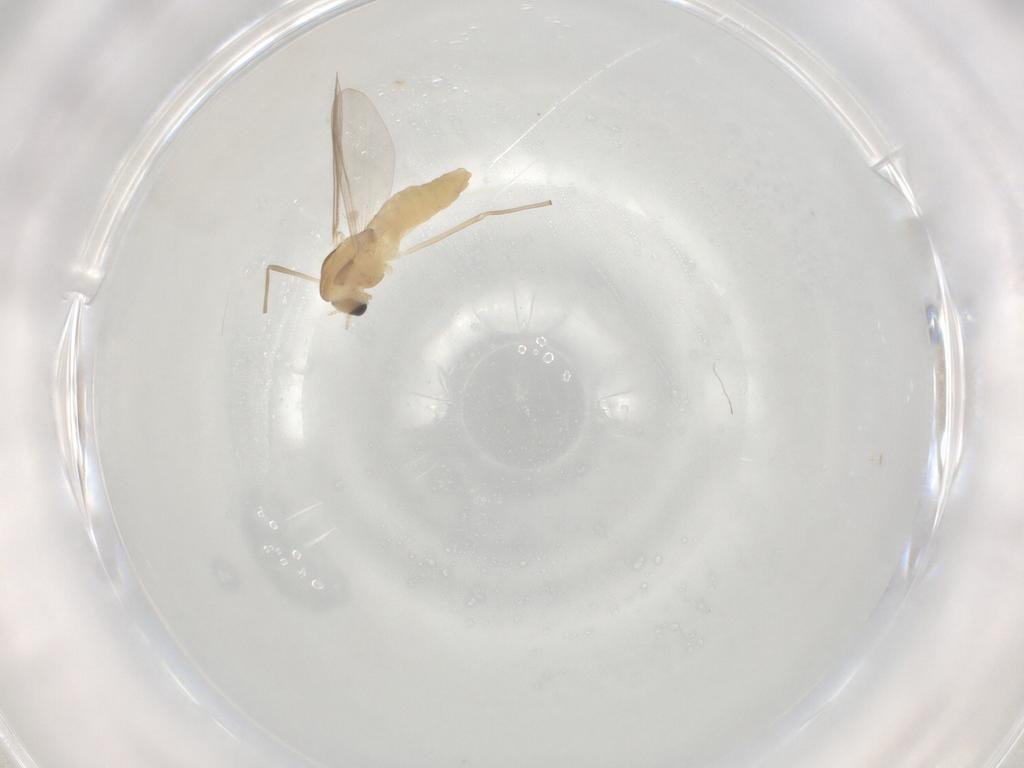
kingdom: Animalia
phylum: Arthropoda
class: Insecta
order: Diptera
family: Chironomidae
